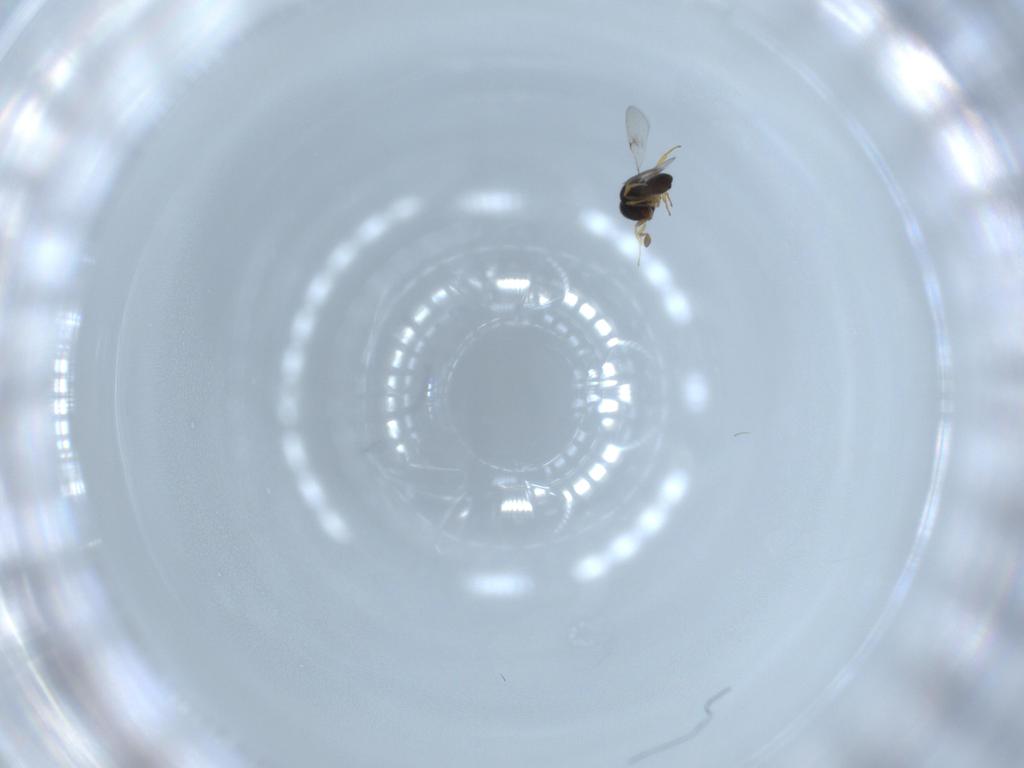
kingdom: Animalia
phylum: Arthropoda
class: Insecta
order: Hymenoptera
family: Scelionidae
